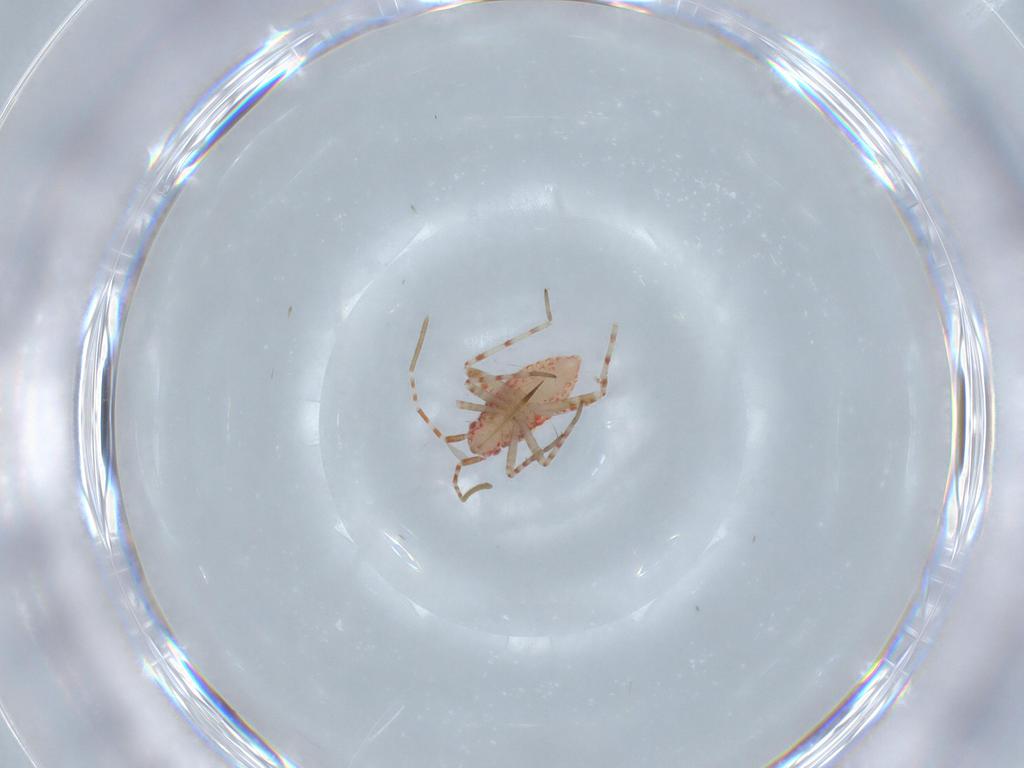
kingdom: Animalia
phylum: Arthropoda
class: Insecta
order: Hemiptera
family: Miridae
